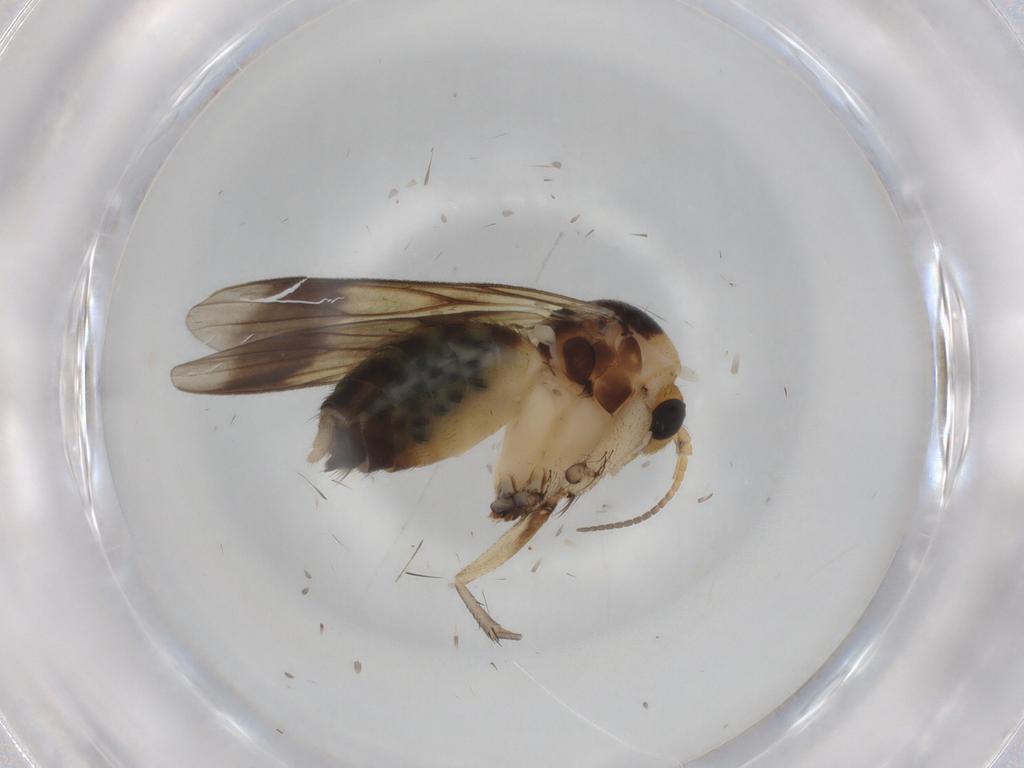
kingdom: Animalia
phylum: Arthropoda
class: Insecta
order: Diptera
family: Mycetophilidae
